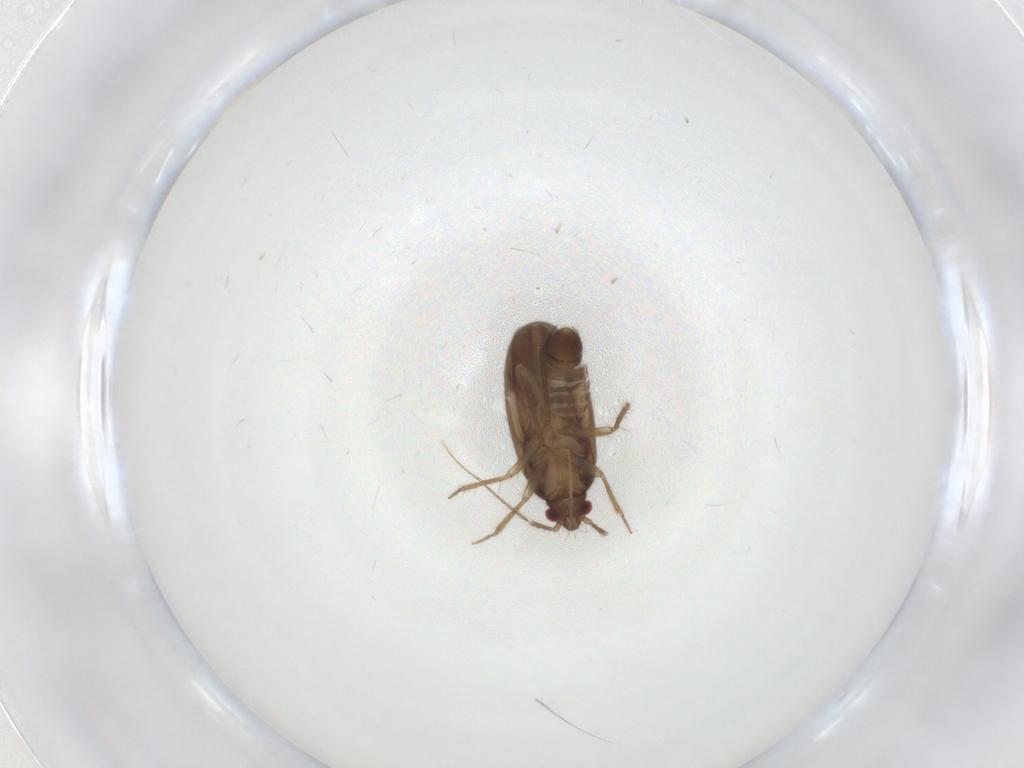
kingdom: Animalia
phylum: Arthropoda
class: Insecta
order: Hemiptera
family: Ceratocombidae
